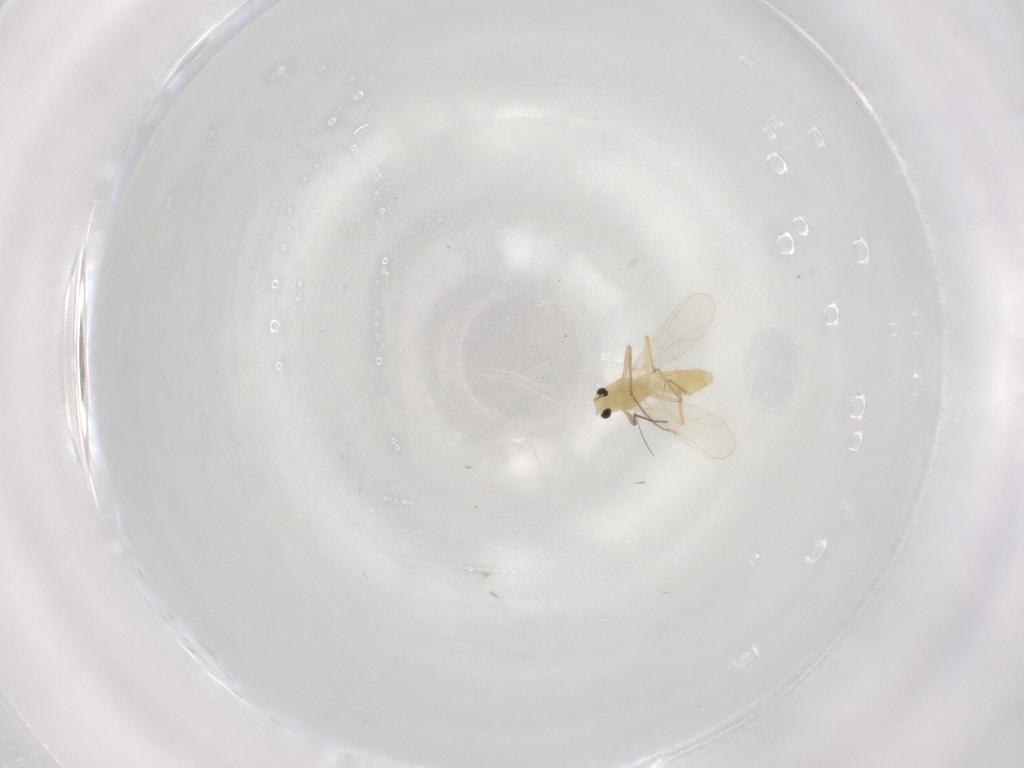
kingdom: Animalia
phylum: Arthropoda
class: Insecta
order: Diptera
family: Chironomidae
